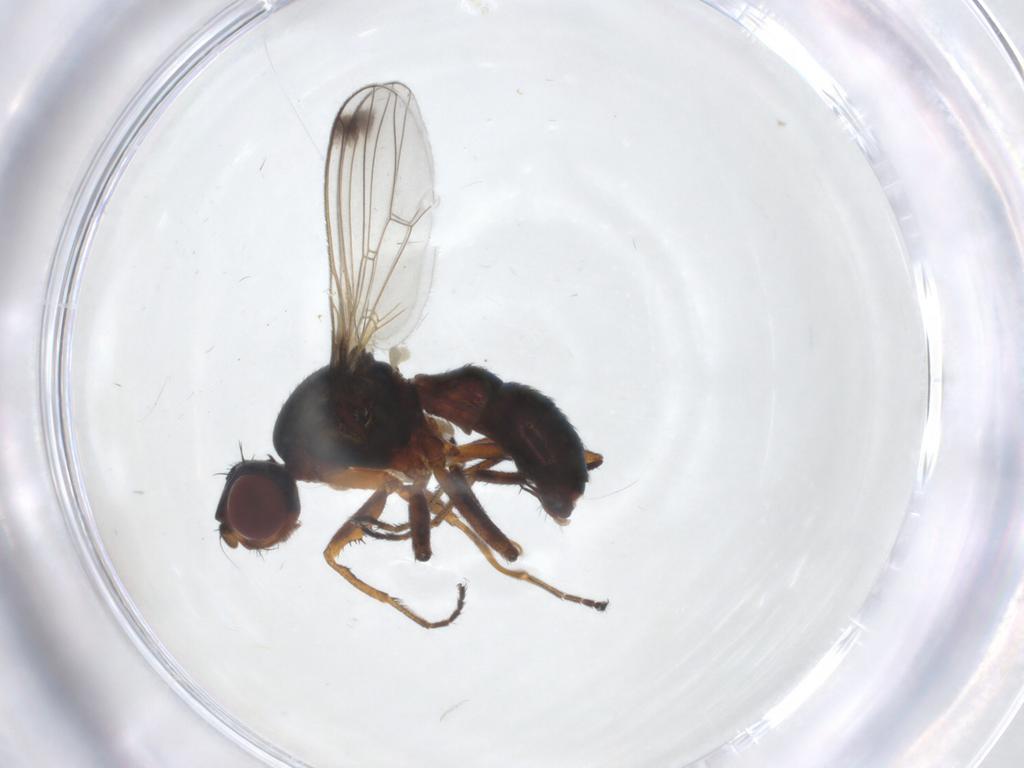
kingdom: Animalia
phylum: Arthropoda
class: Insecta
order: Diptera
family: Sepsidae
